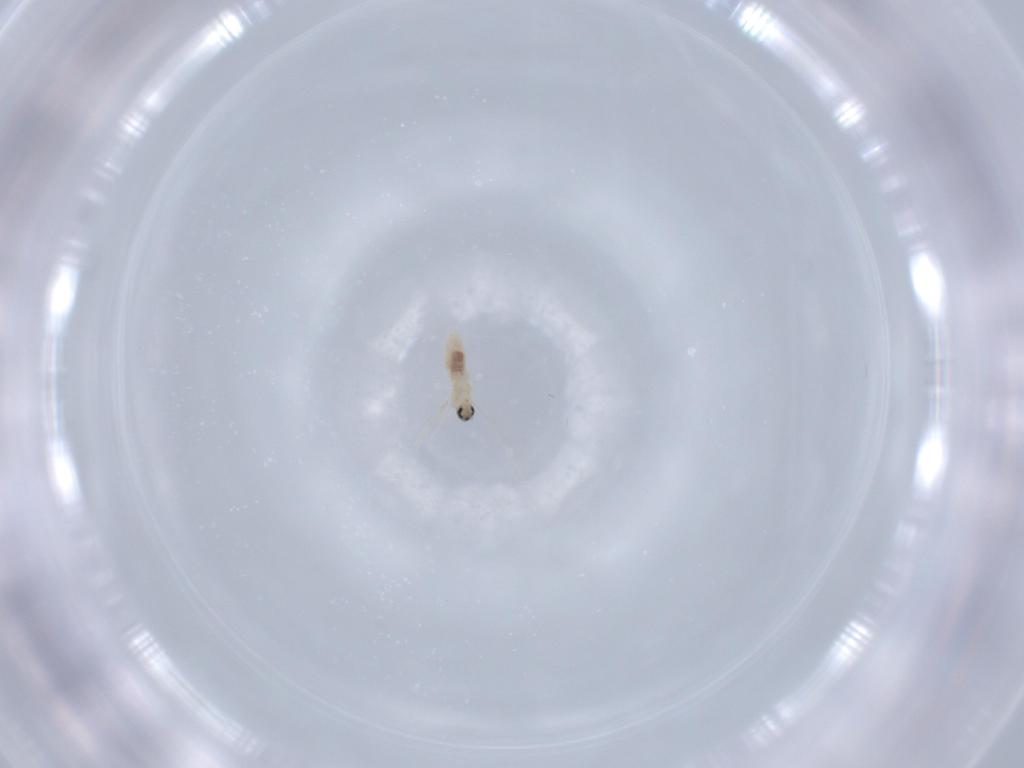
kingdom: Animalia
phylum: Arthropoda
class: Insecta
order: Diptera
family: Cecidomyiidae
